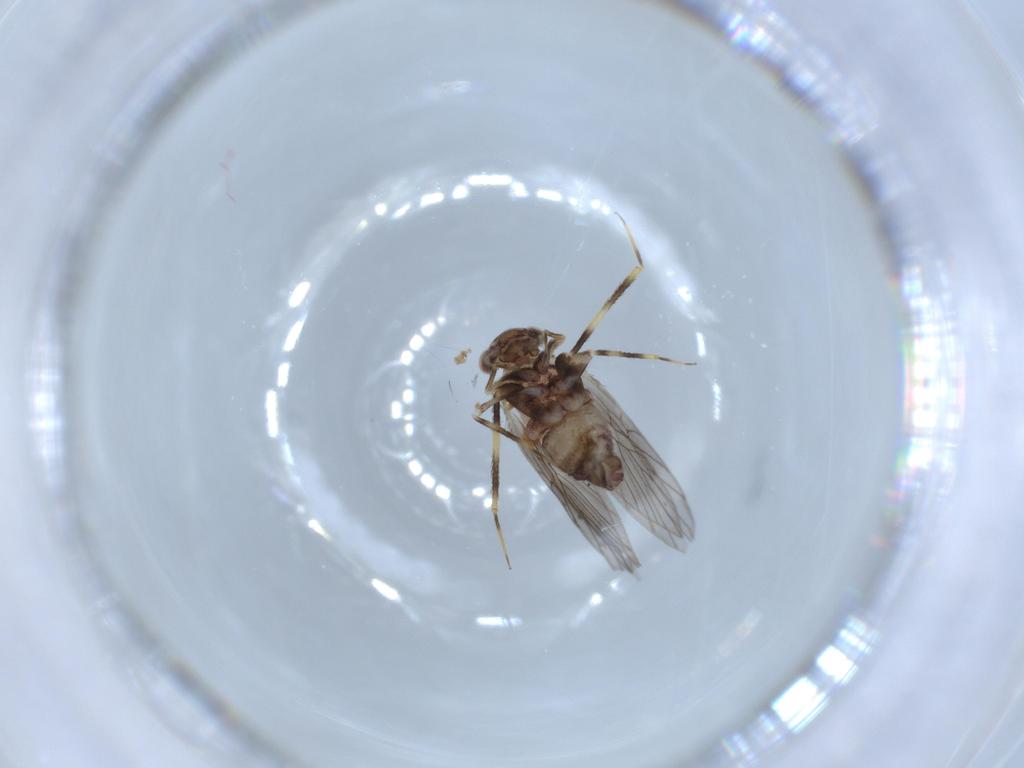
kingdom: Animalia
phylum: Arthropoda
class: Insecta
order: Psocodea
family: Lepidopsocidae
